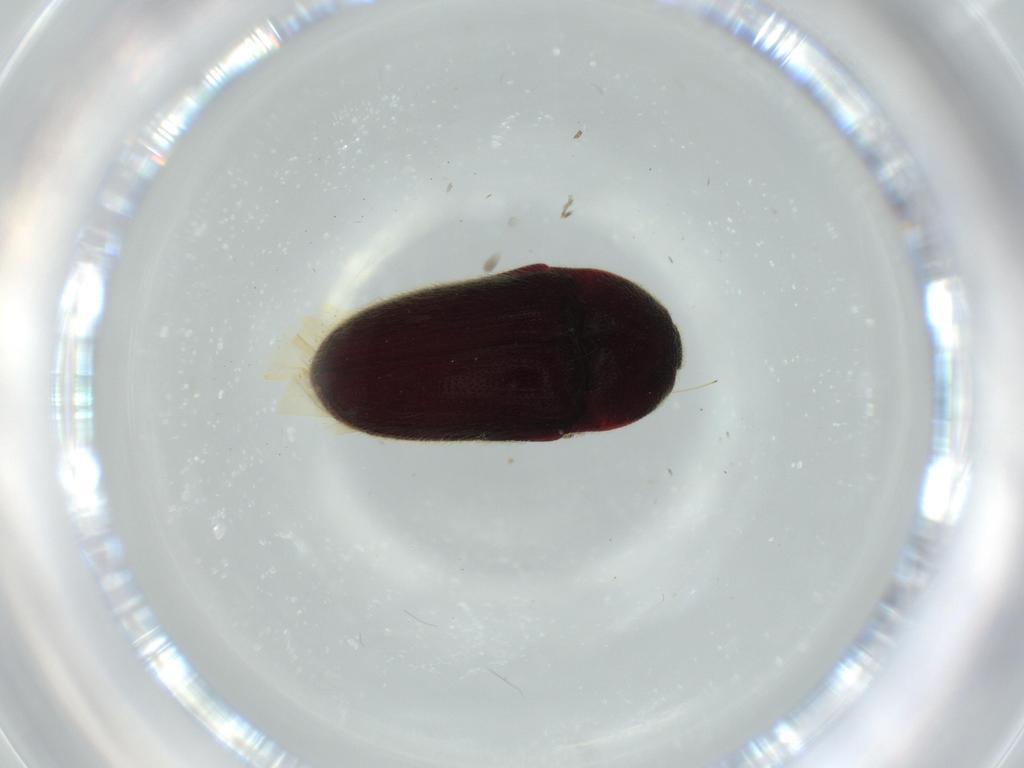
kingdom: Animalia
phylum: Arthropoda
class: Insecta
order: Coleoptera
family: Throscidae
